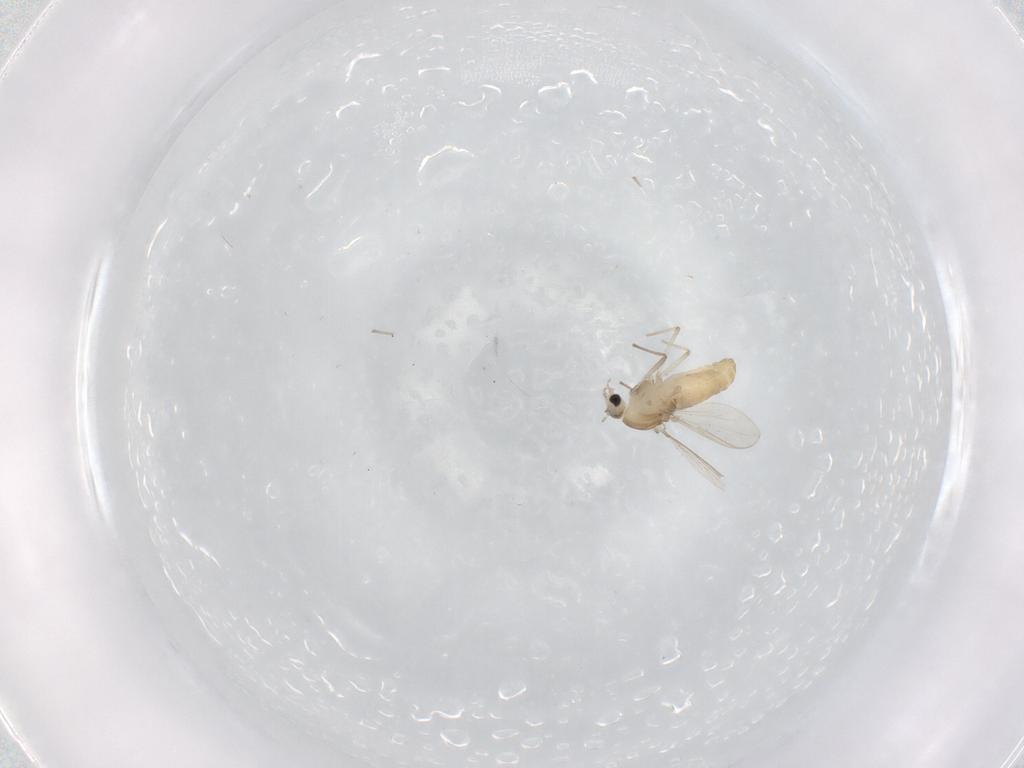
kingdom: Animalia
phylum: Arthropoda
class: Insecta
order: Diptera
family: Chironomidae
